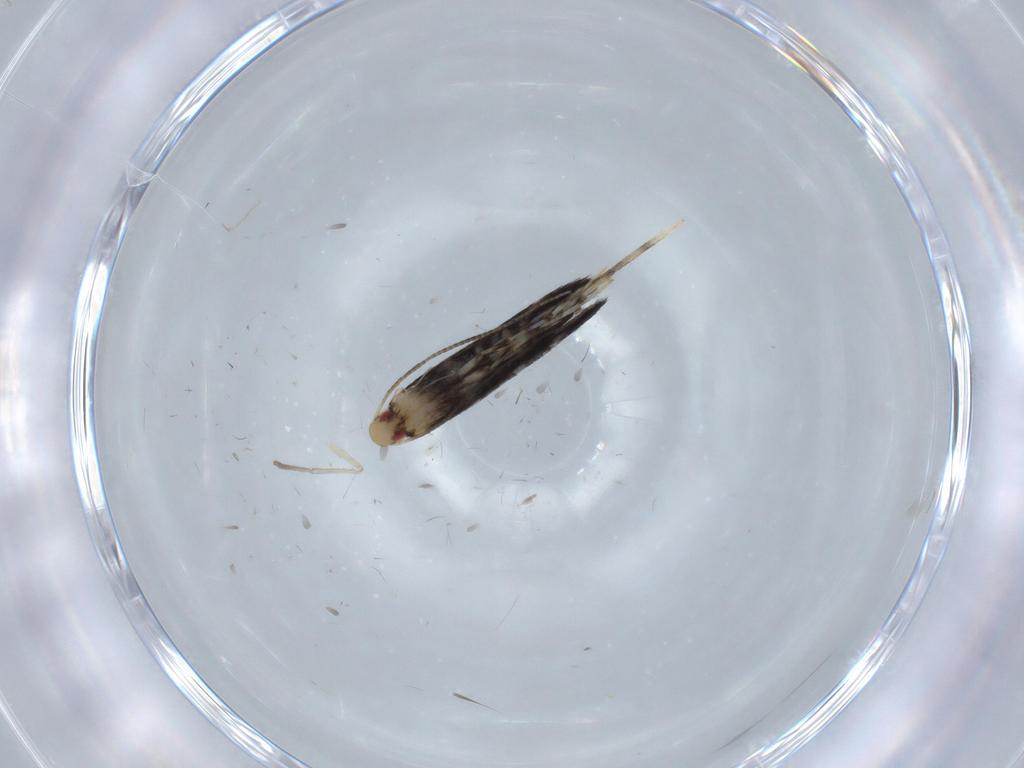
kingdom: Animalia
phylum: Arthropoda
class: Insecta
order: Lepidoptera
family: Gracillariidae
